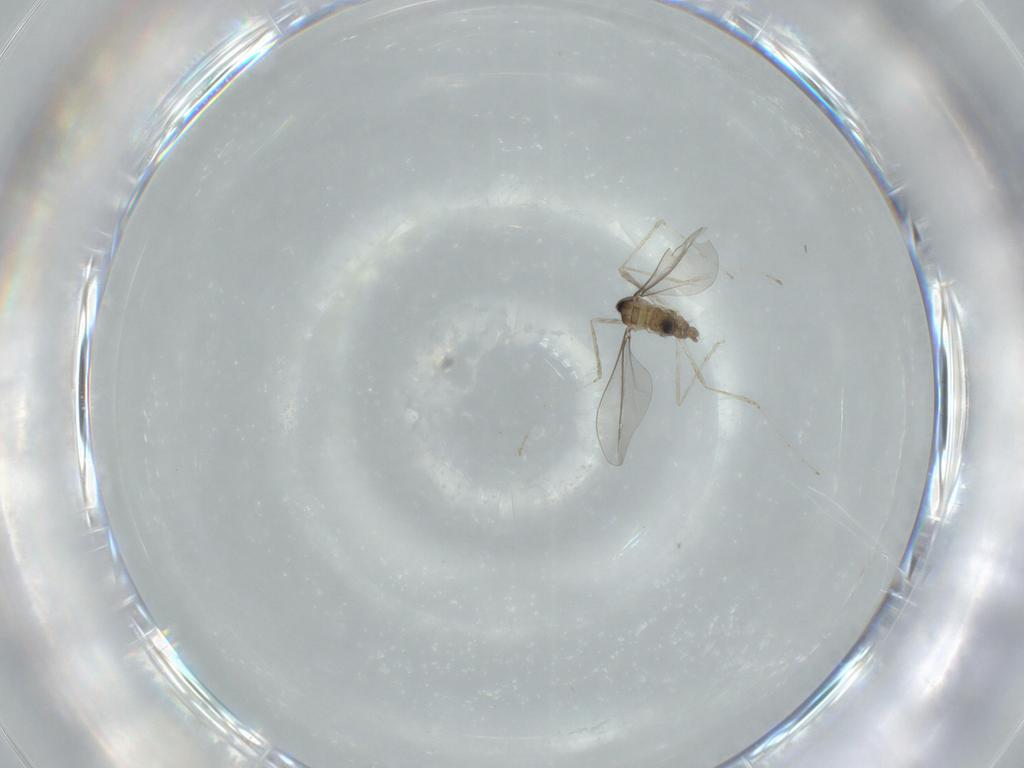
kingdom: Animalia
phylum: Arthropoda
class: Insecta
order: Diptera
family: Cecidomyiidae
